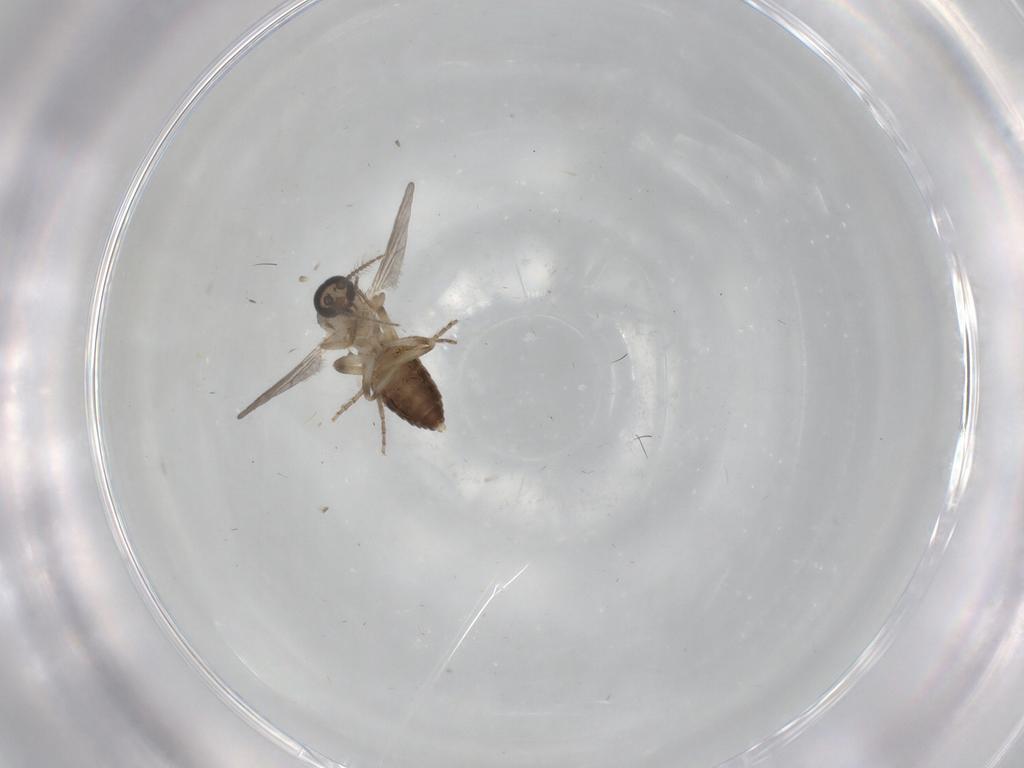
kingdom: Animalia
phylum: Arthropoda
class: Insecta
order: Diptera
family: Ceratopogonidae
